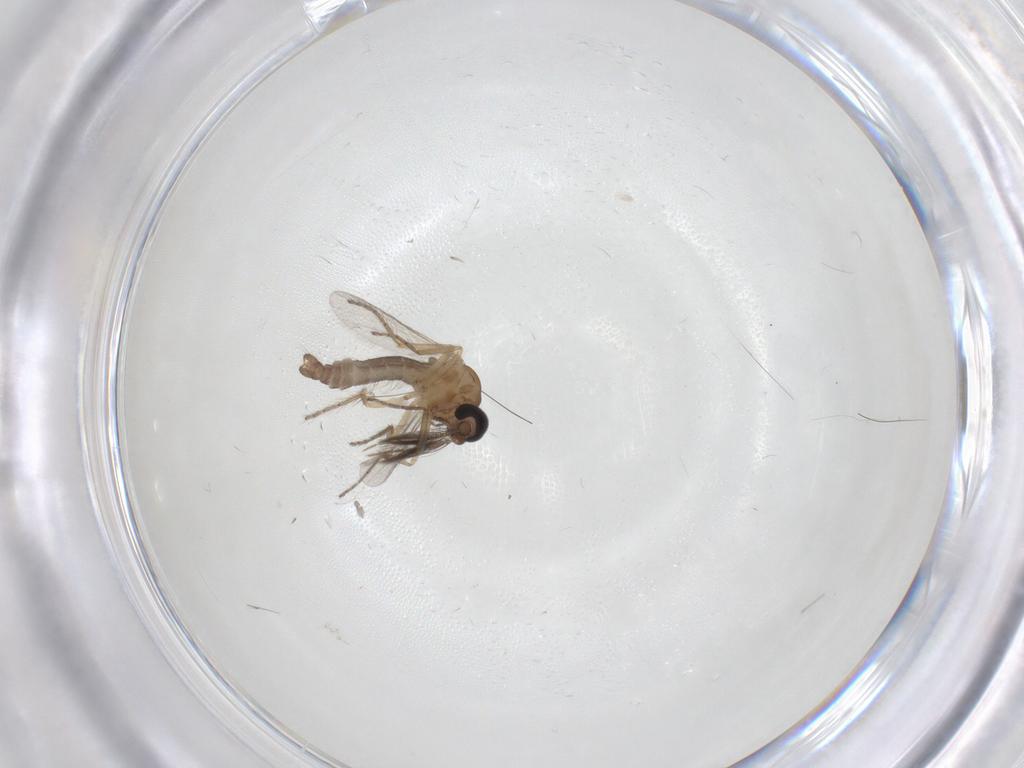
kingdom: Animalia
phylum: Arthropoda
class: Insecta
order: Diptera
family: Ceratopogonidae
